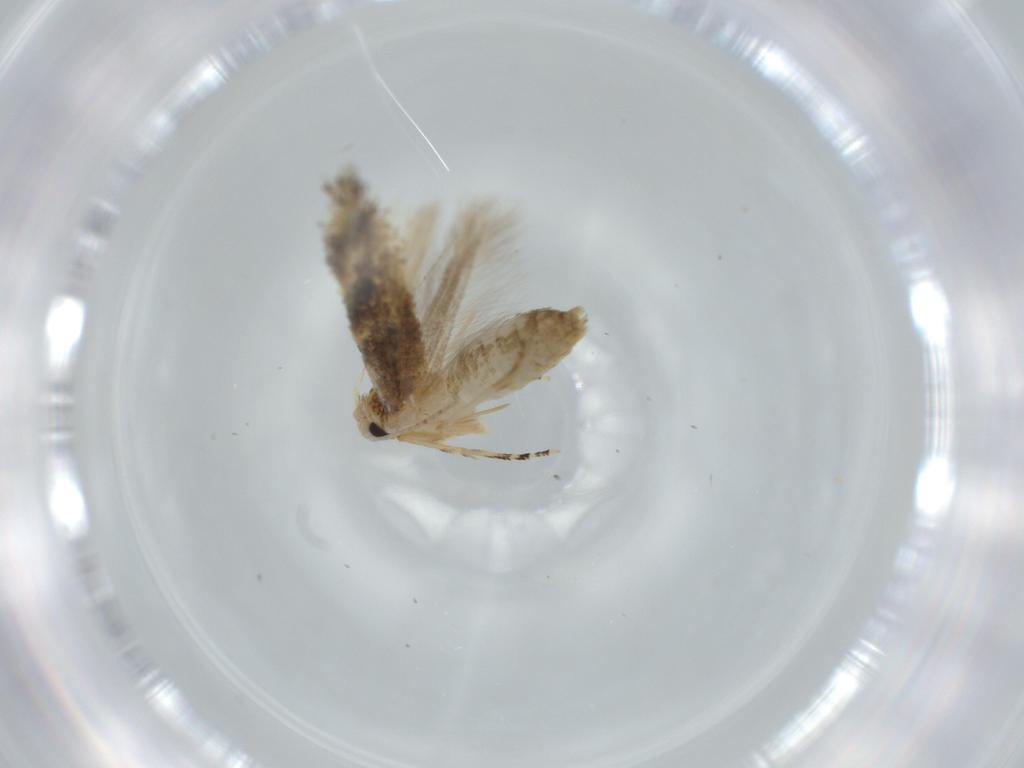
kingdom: Animalia
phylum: Arthropoda
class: Insecta
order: Lepidoptera
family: Bucculatricidae
